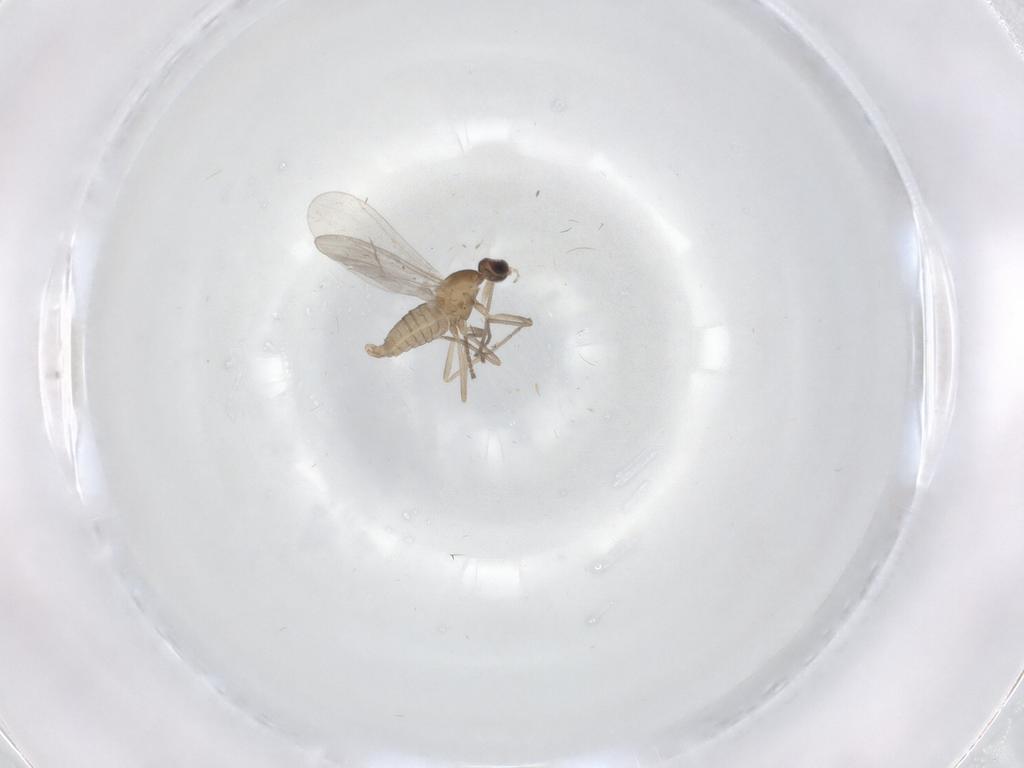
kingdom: Animalia
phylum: Arthropoda
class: Insecta
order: Diptera
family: Cecidomyiidae
